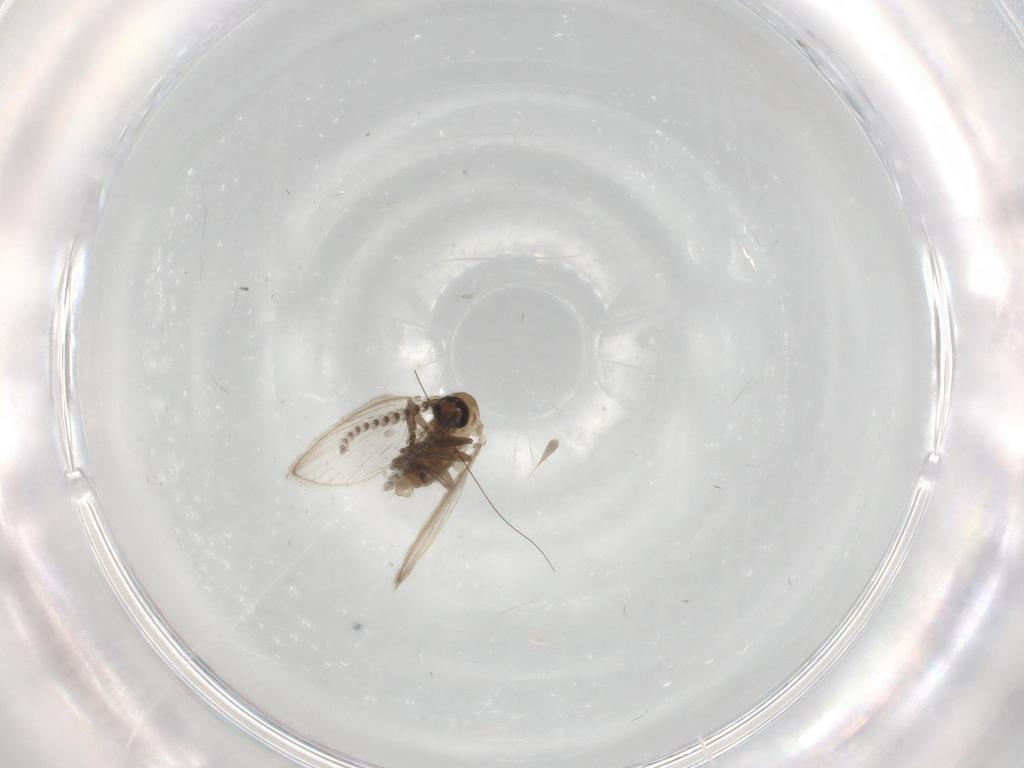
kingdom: Animalia
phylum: Arthropoda
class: Insecta
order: Diptera
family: Psychodidae
